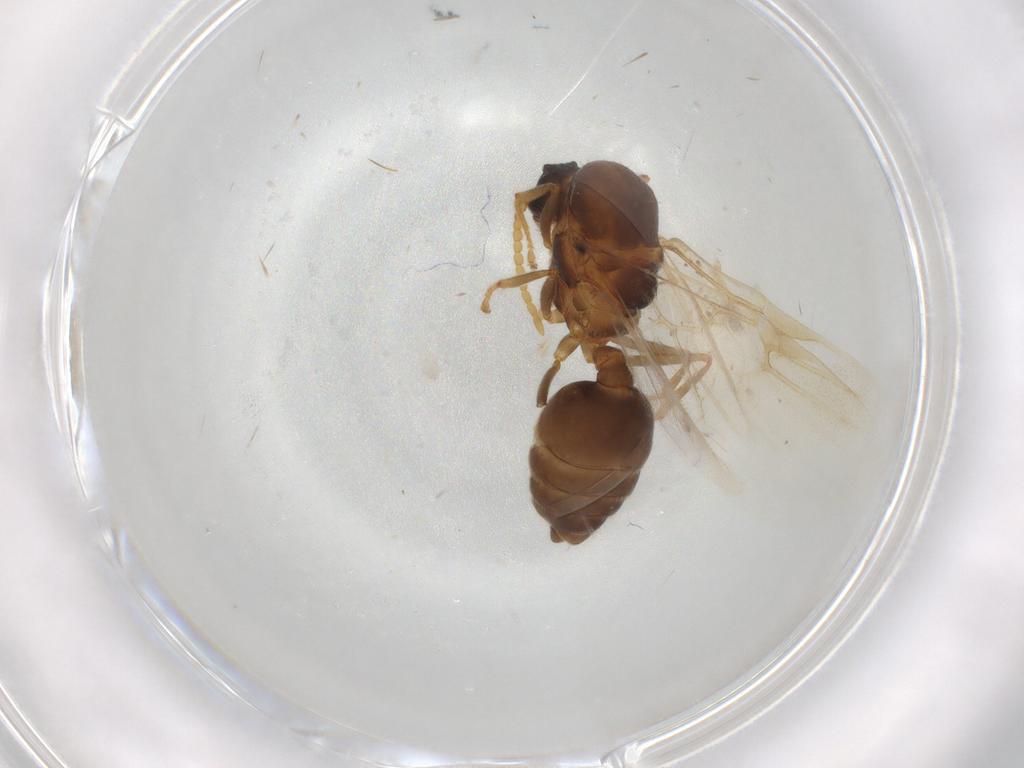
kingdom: Animalia
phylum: Arthropoda
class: Insecta
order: Hymenoptera
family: Formicidae
